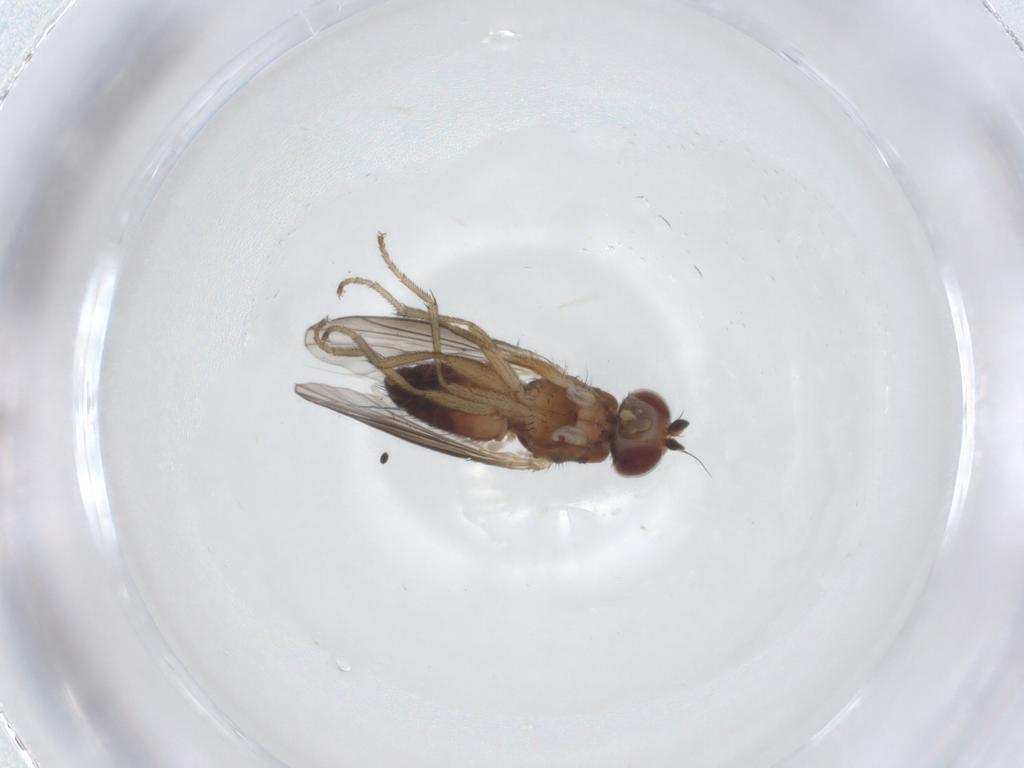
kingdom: Animalia
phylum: Arthropoda
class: Insecta
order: Diptera
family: Heleomyzidae
